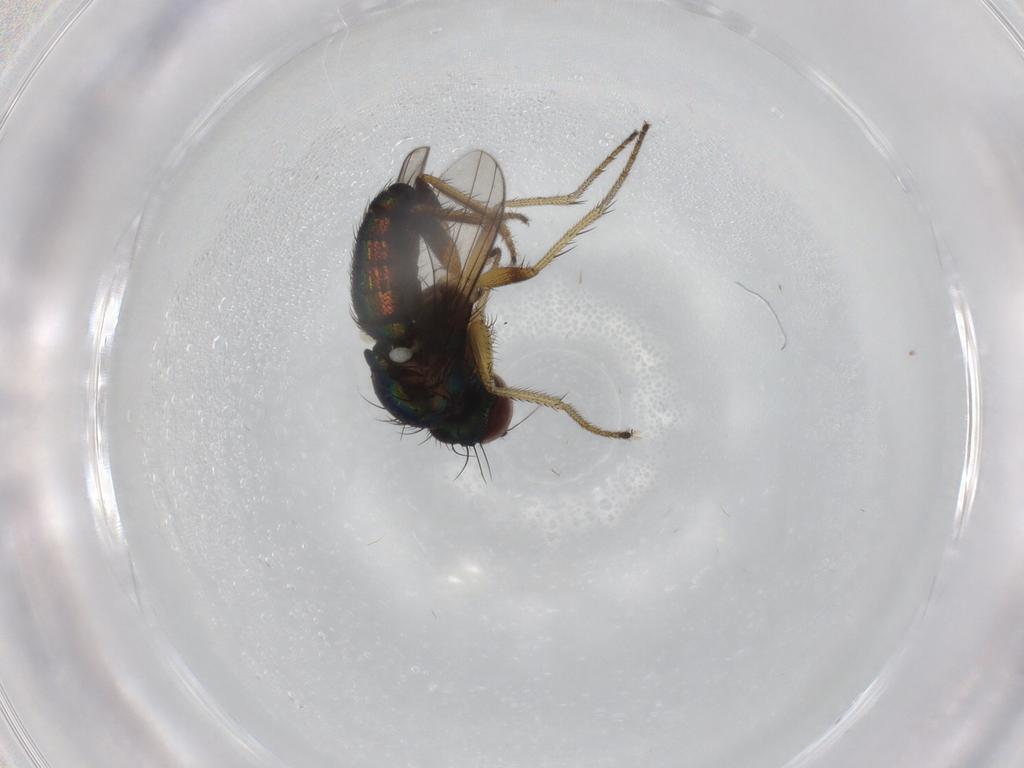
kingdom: Animalia
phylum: Arthropoda
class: Insecta
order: Diptera
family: Dolichopodidae
